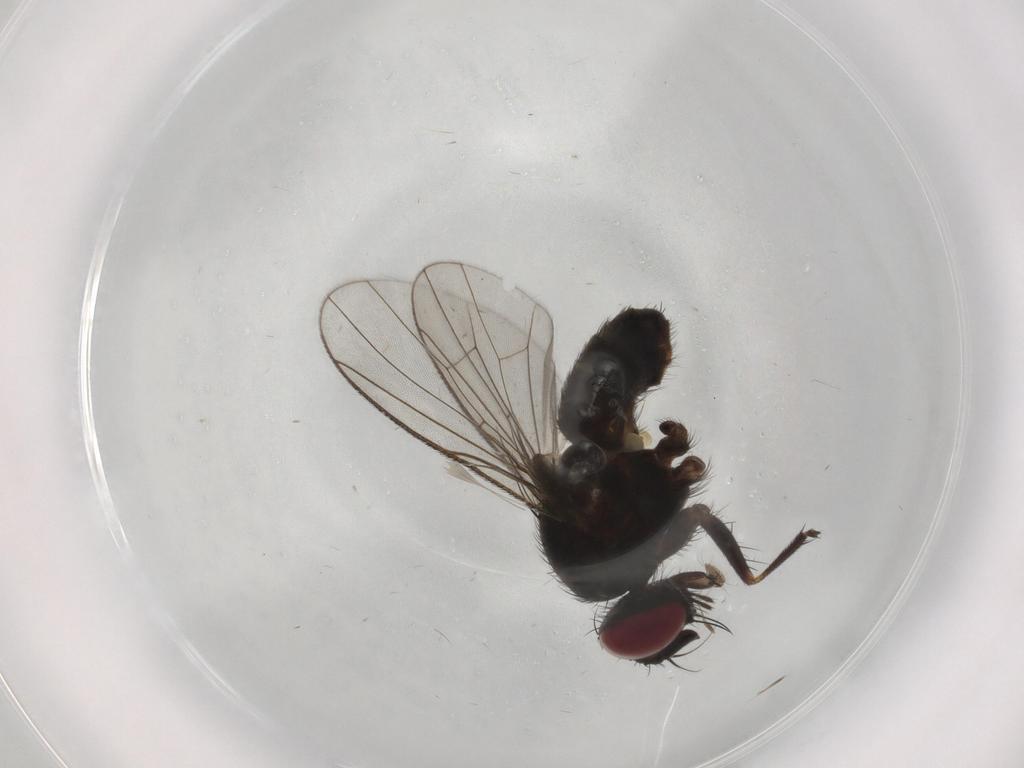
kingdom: Animalia
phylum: Arthropoda
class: Insecta
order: Diptera
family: Muscidae
